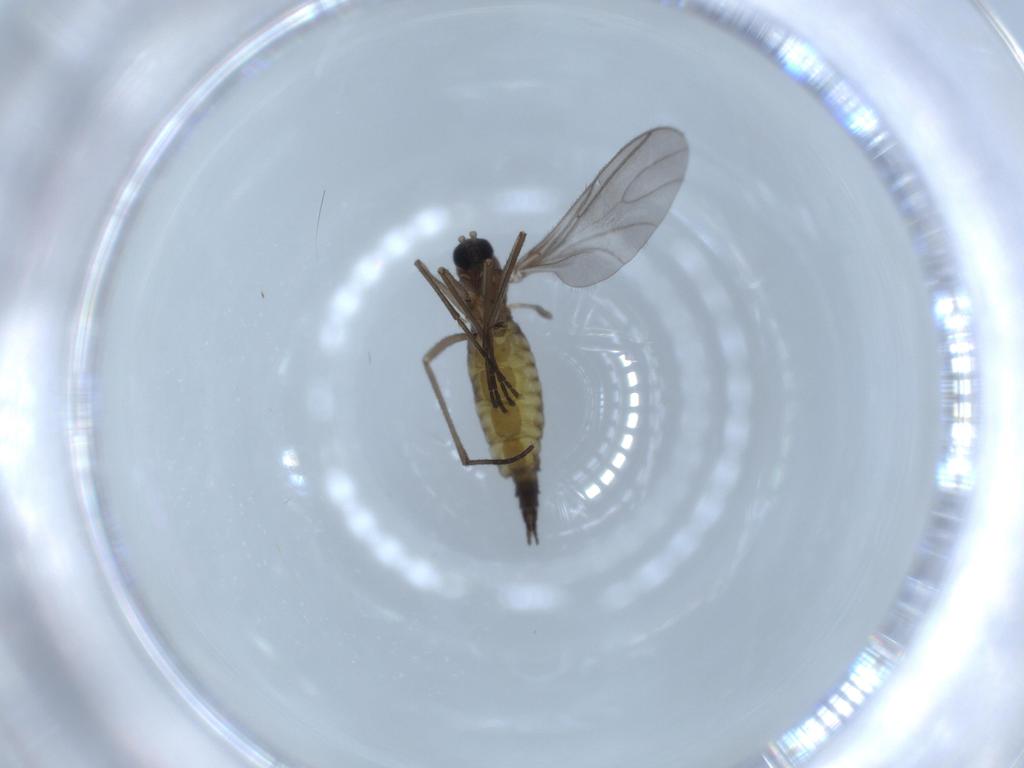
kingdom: Animalia
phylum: Arthropoda
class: Insecta
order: Diptera
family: Sciaridae
